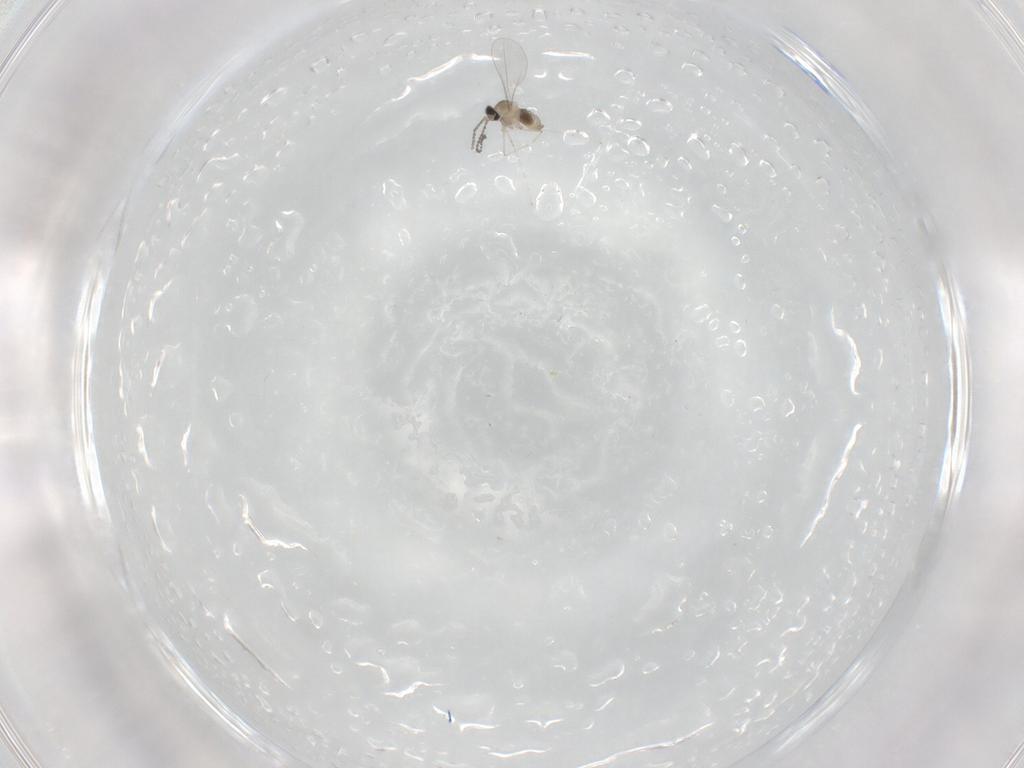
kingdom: Animalia
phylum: Arthropoda
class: Insecta
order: Diptera
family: Cecidomyiidae
